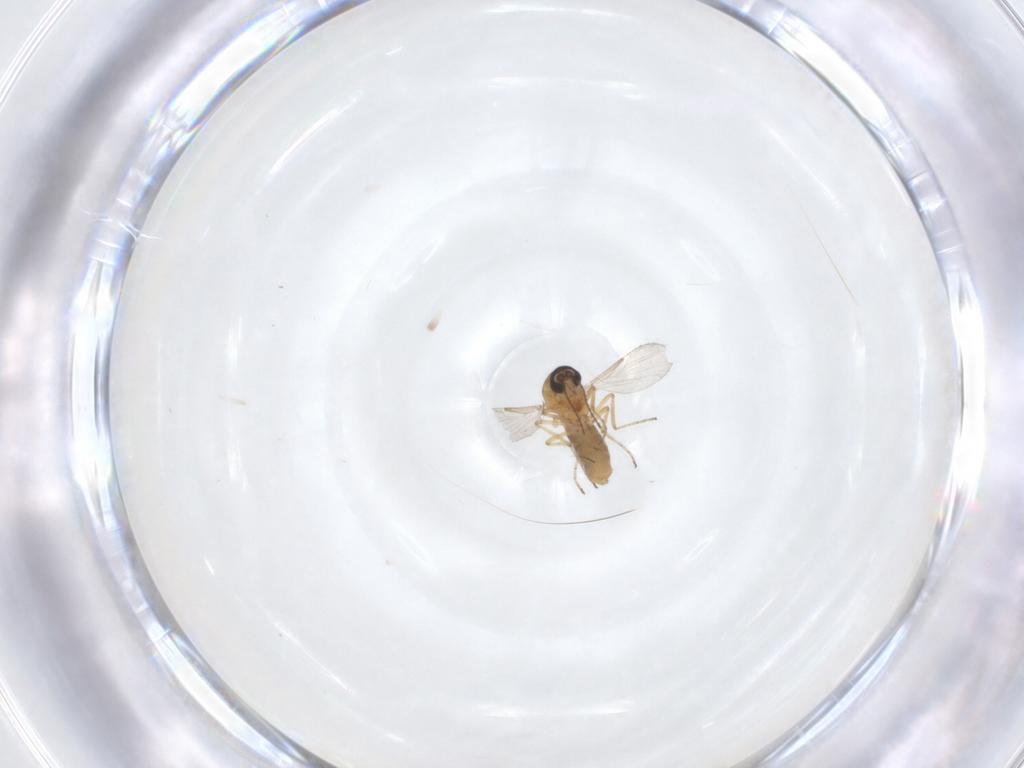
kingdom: Animalia
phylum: Arthropoda
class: Insecta
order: Diptera
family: Ceratopogonidae
